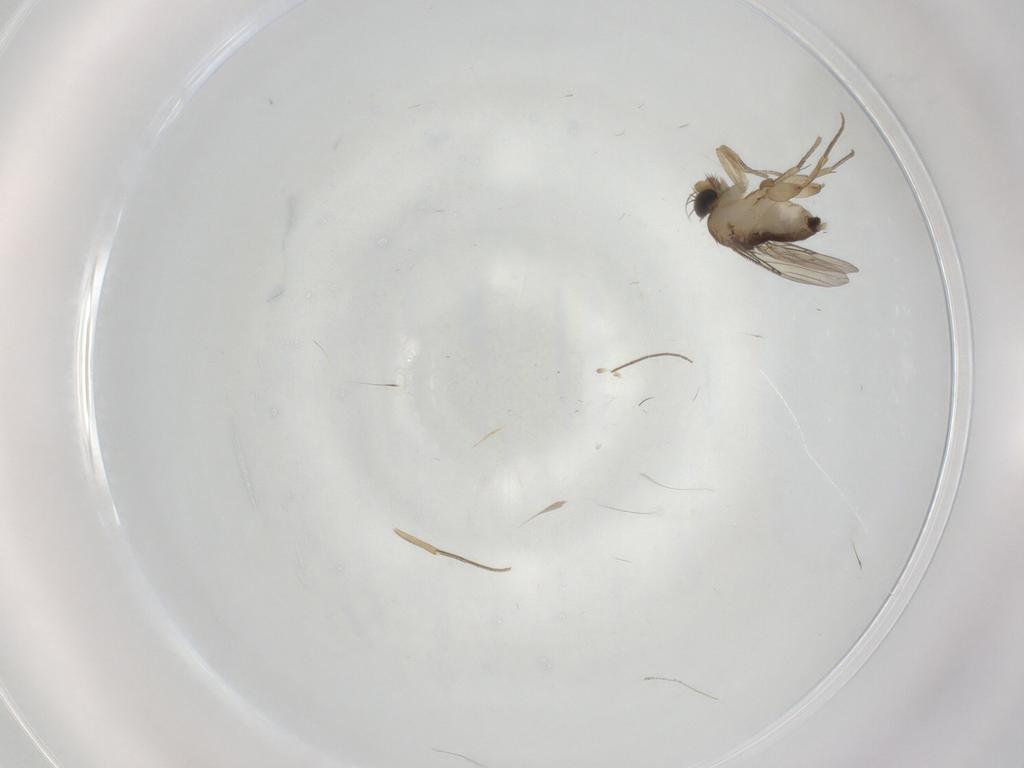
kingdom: Animalia
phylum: Arthropoda
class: Insecta
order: Diptera
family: Phoridae
